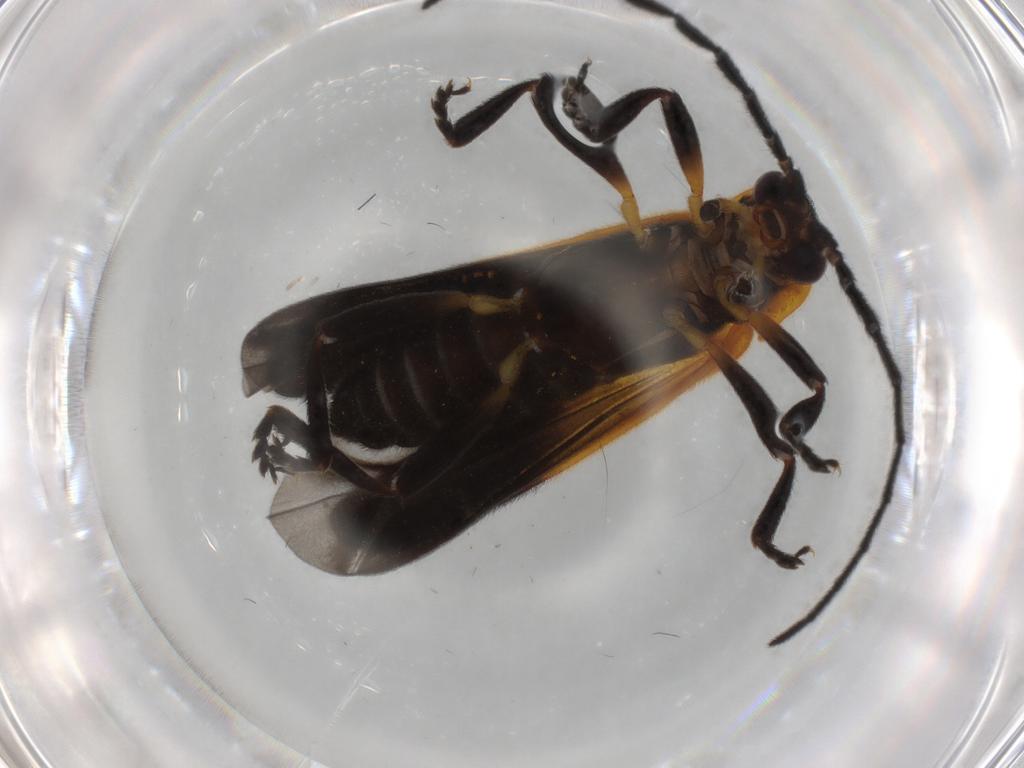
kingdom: Animalia
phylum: Arthropoda
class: Insecta
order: Coleoptera
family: Lycidae
